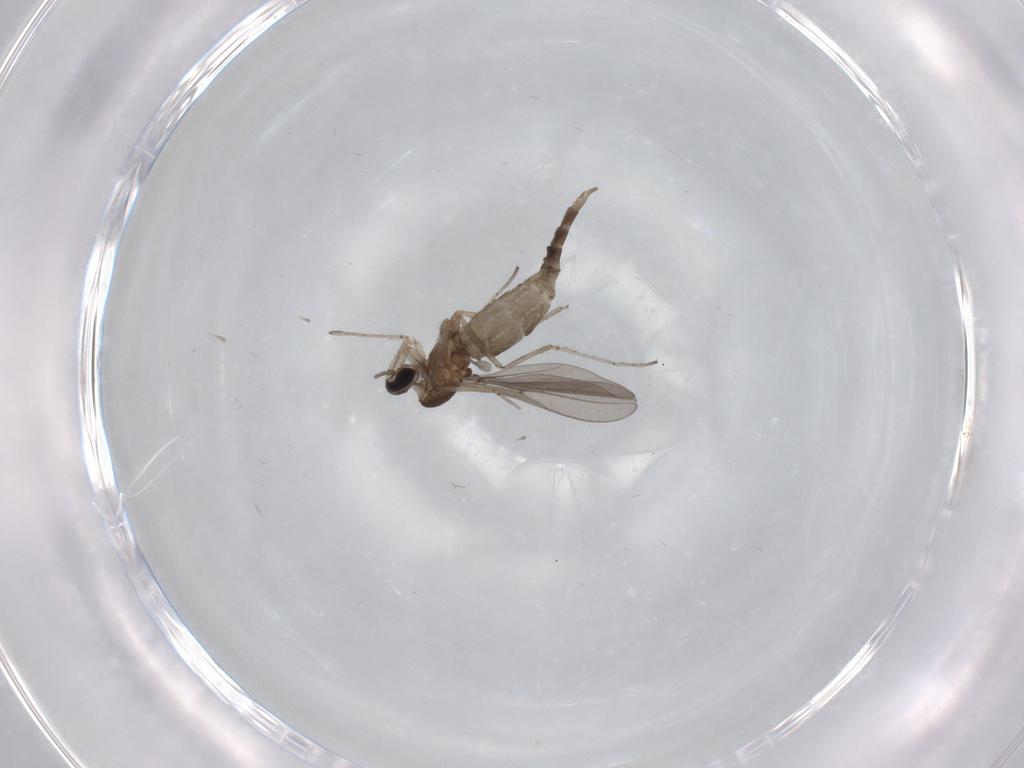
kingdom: Animalia
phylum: Arthropoda
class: Insecta
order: Diptera
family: Cecidomyiidae
